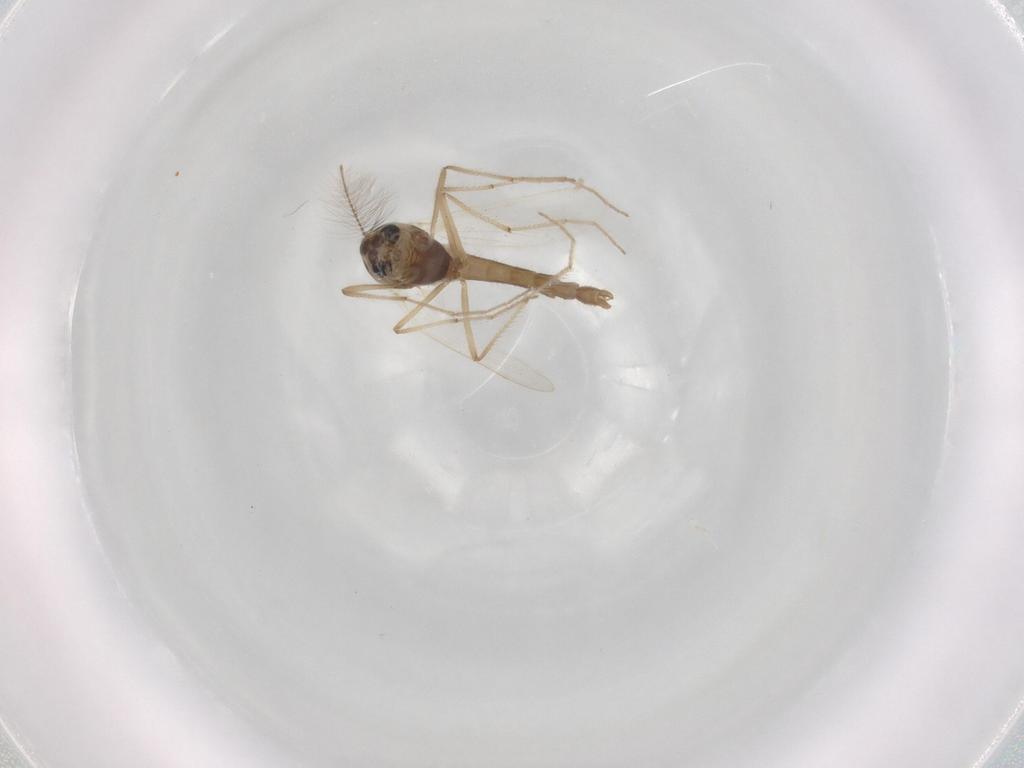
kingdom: Animalia
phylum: Arthropoda
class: Insecta
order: Diptera
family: Chironomidae
